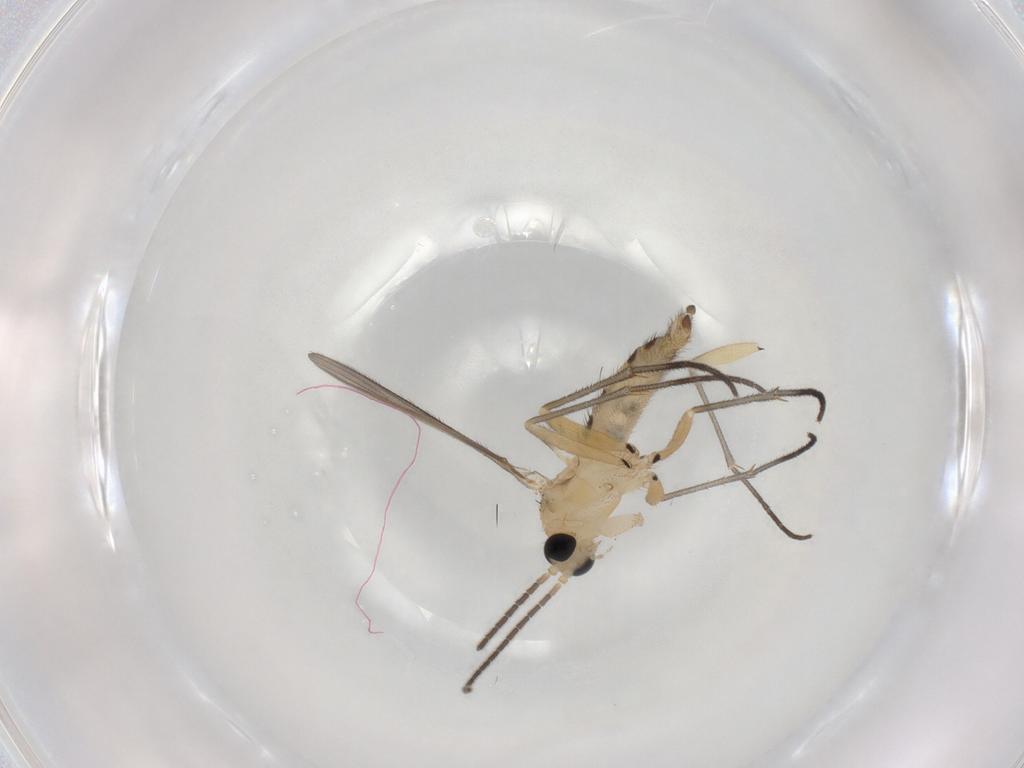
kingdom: Animalia
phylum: Arthropoda
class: Insecta
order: Diptera
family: Sciaridae
